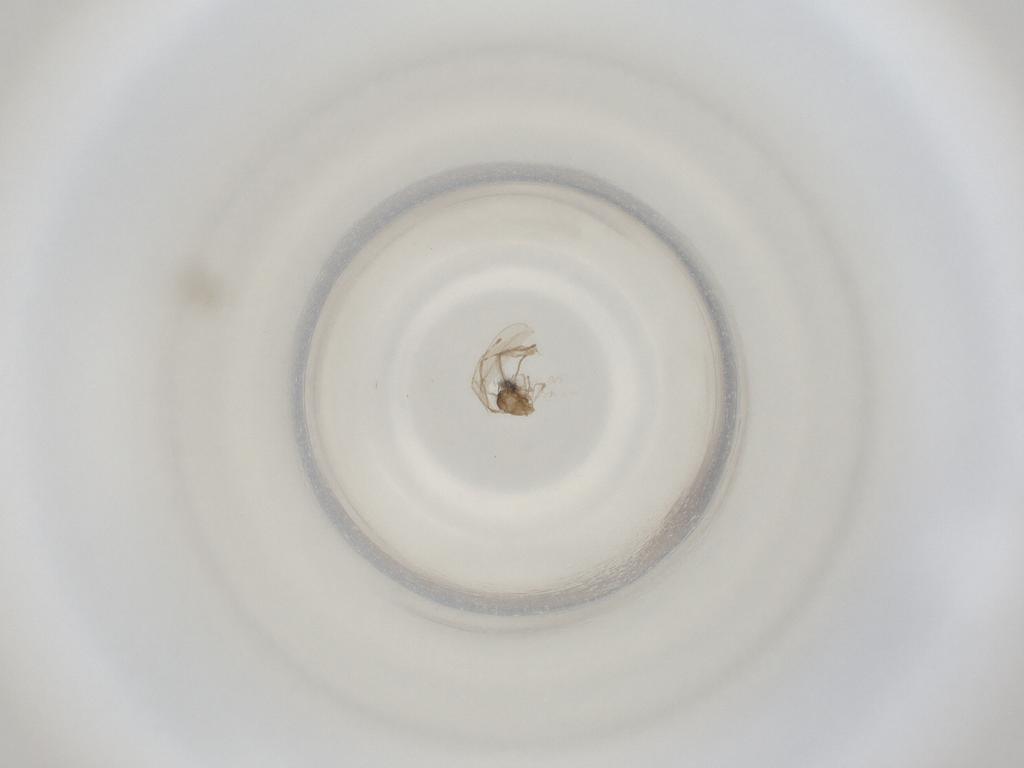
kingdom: Animalia
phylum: Arthropoda
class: Insecta
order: Diptera
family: Cecidomyiidae
